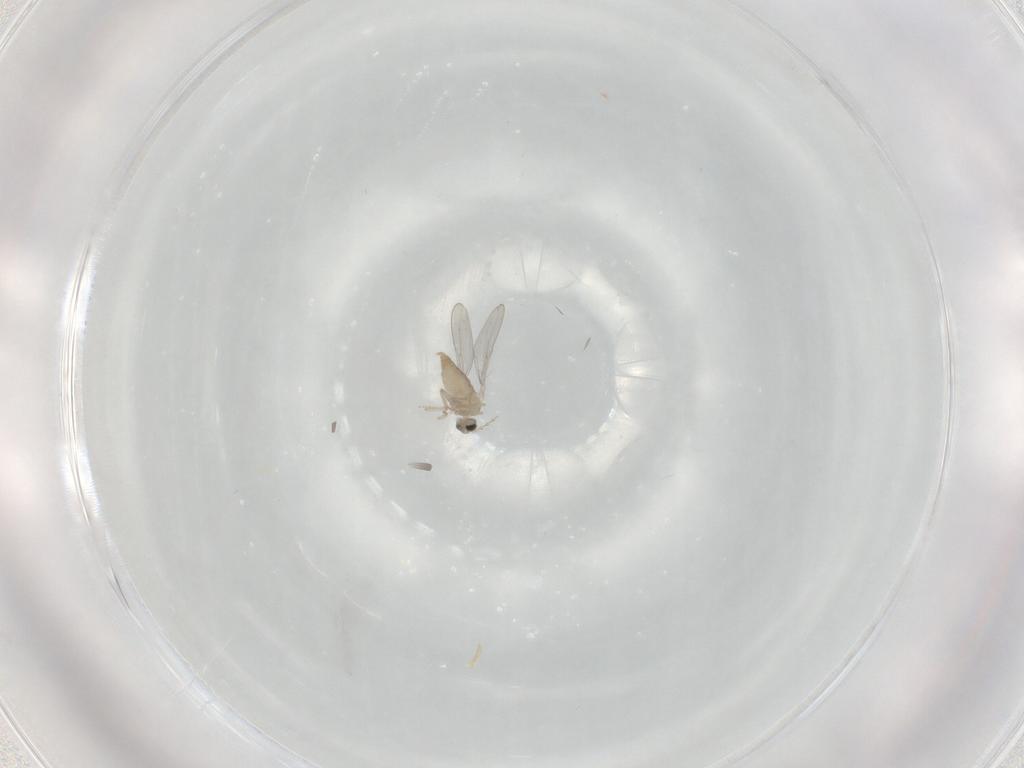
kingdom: Animalia
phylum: Arthropoda
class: Insecta
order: Diptera
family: Cecidomyiidae
